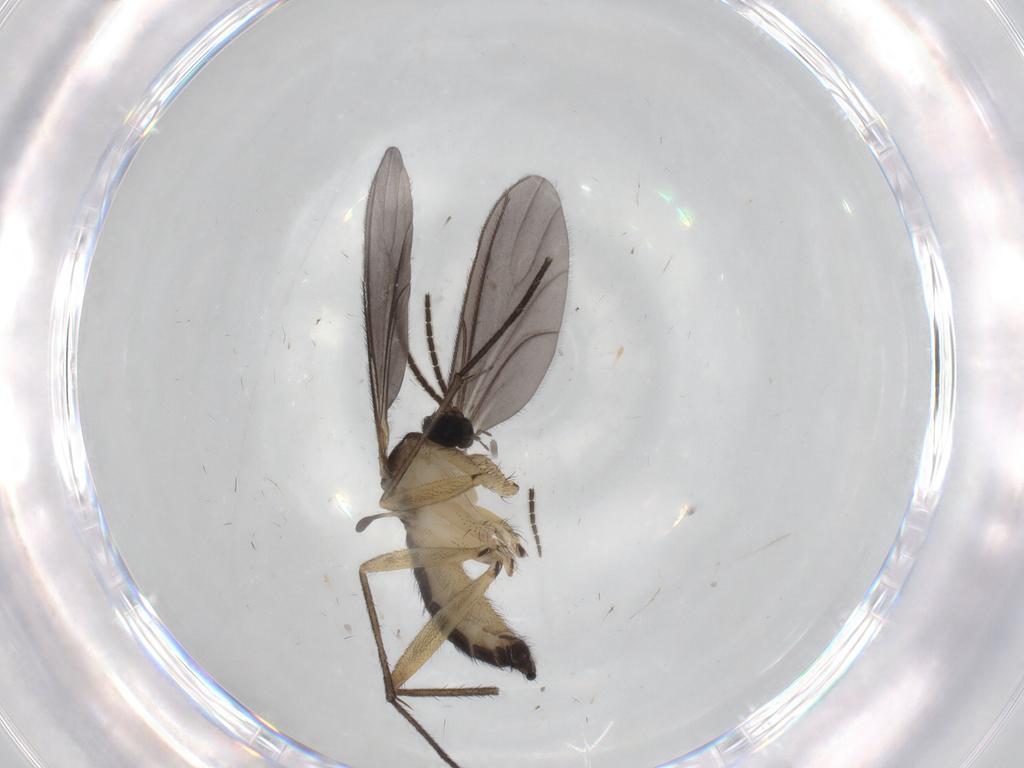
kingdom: Animalia
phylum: Arthropoda
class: Insecta
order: Diptera
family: Sciaridae
